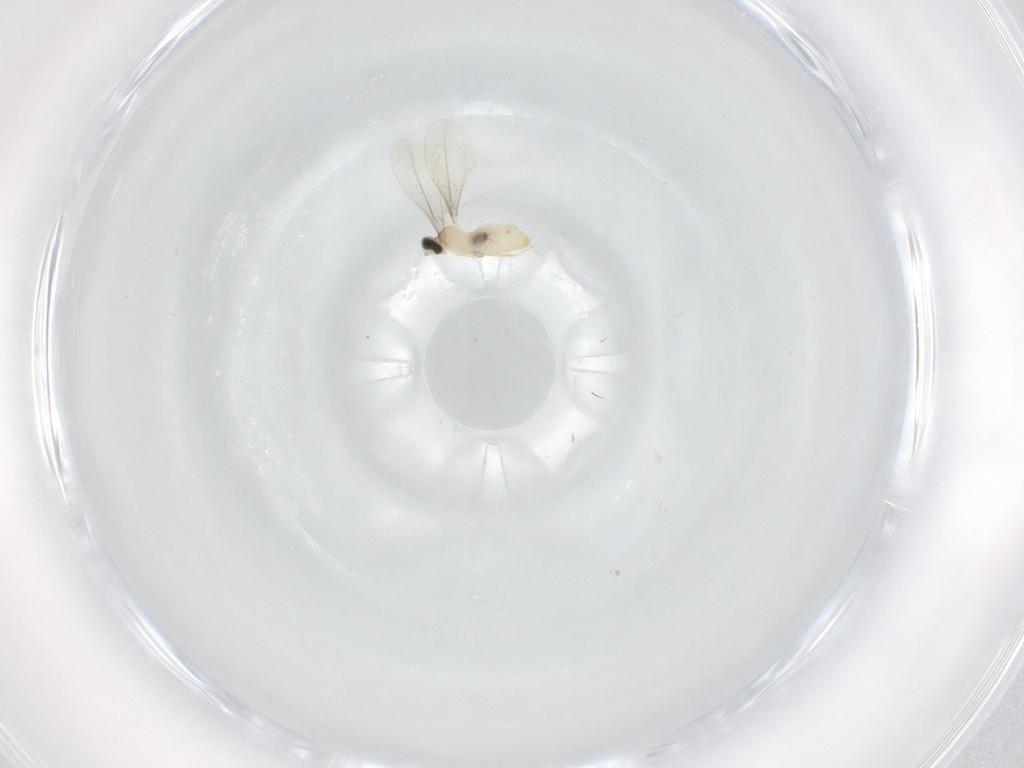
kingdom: Animalia
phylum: Arthropoda
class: Insecta
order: Diptera
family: Cecidomyiidae
